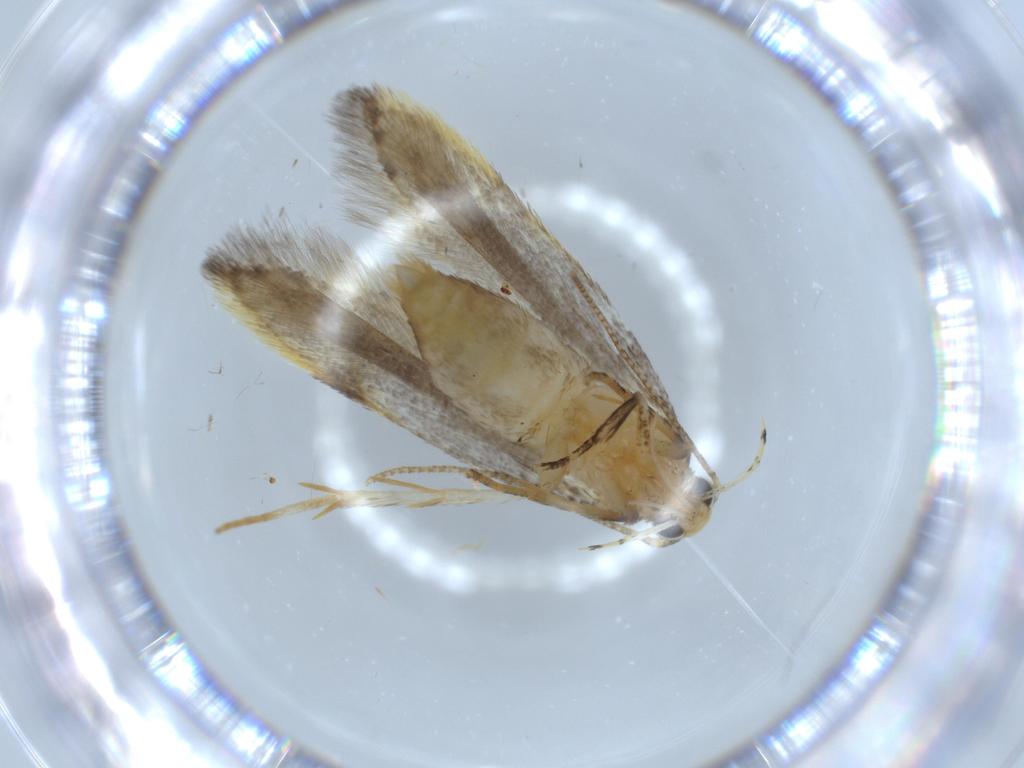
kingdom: Animalia
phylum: Arthropoda
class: Insecta
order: Lepidoptera
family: Autostichidae
